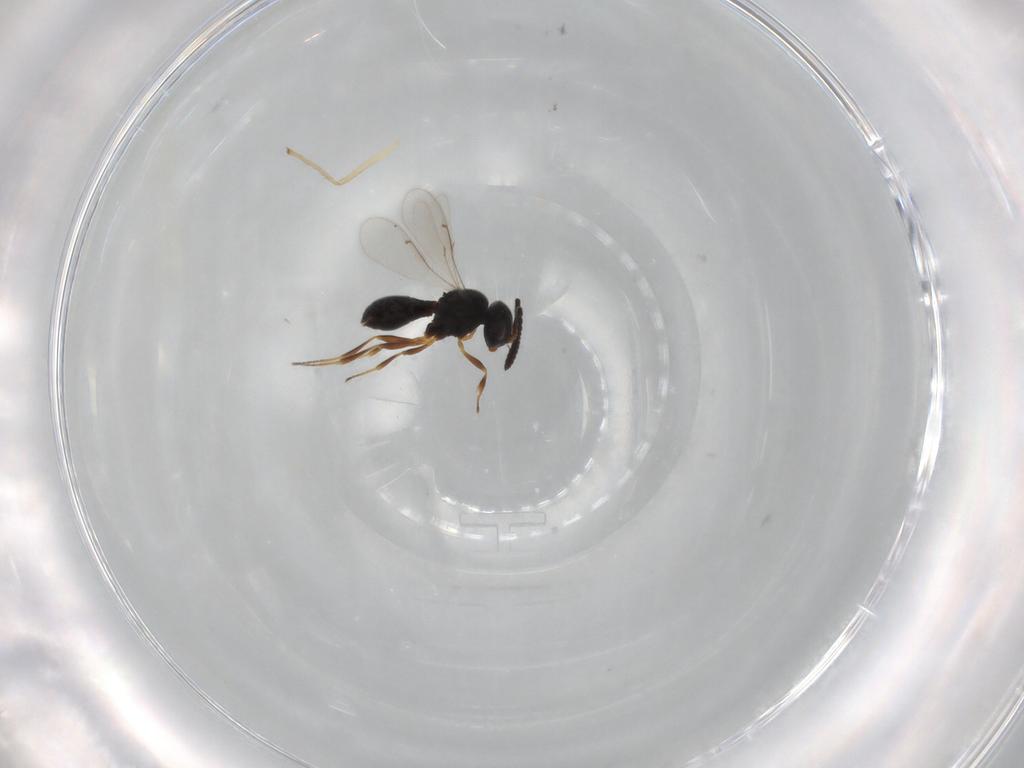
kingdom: Animalia
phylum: Arthropoda
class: Insecta
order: Hymenoptera
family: Scelionidae
